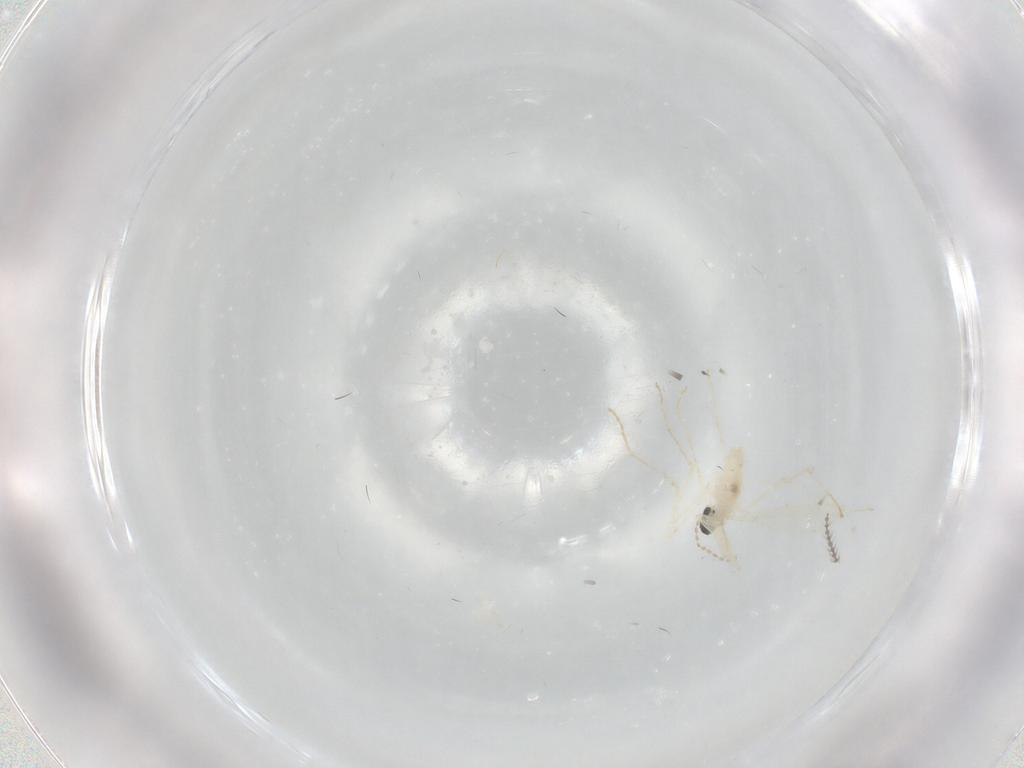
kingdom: Animalia
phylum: Arthropoda
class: Insecta
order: Diptera
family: Cecidomyiidae
